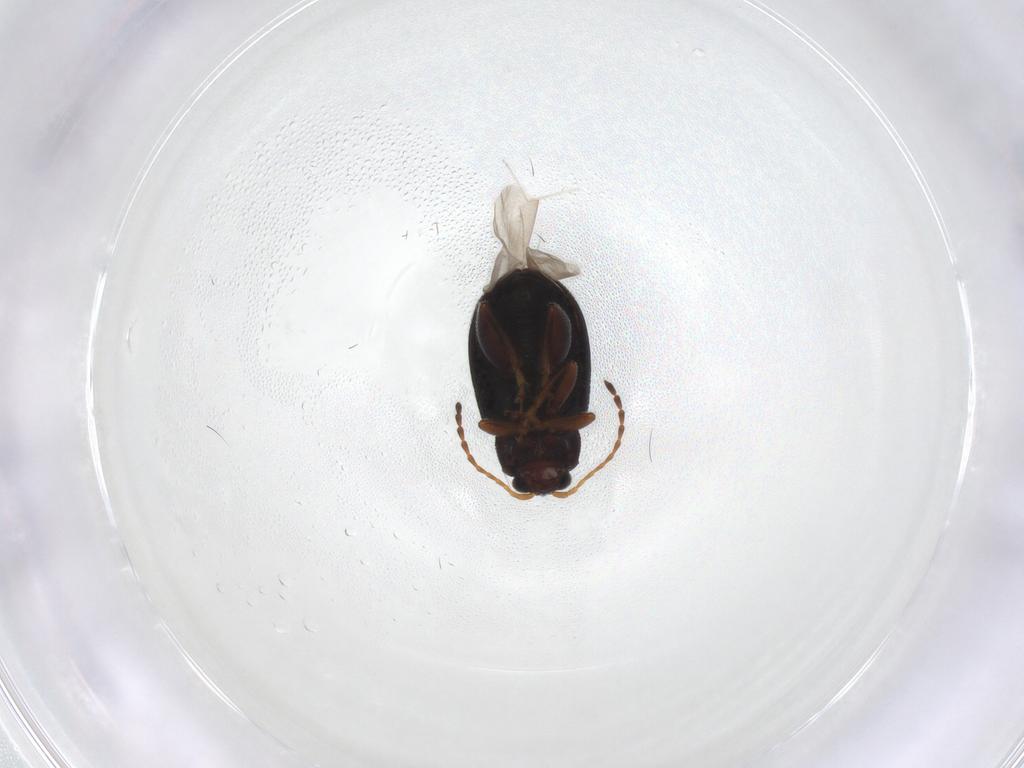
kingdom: Animalia
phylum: Arthropoda
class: Insecta
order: Coleoptera
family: Chrysomelidae
